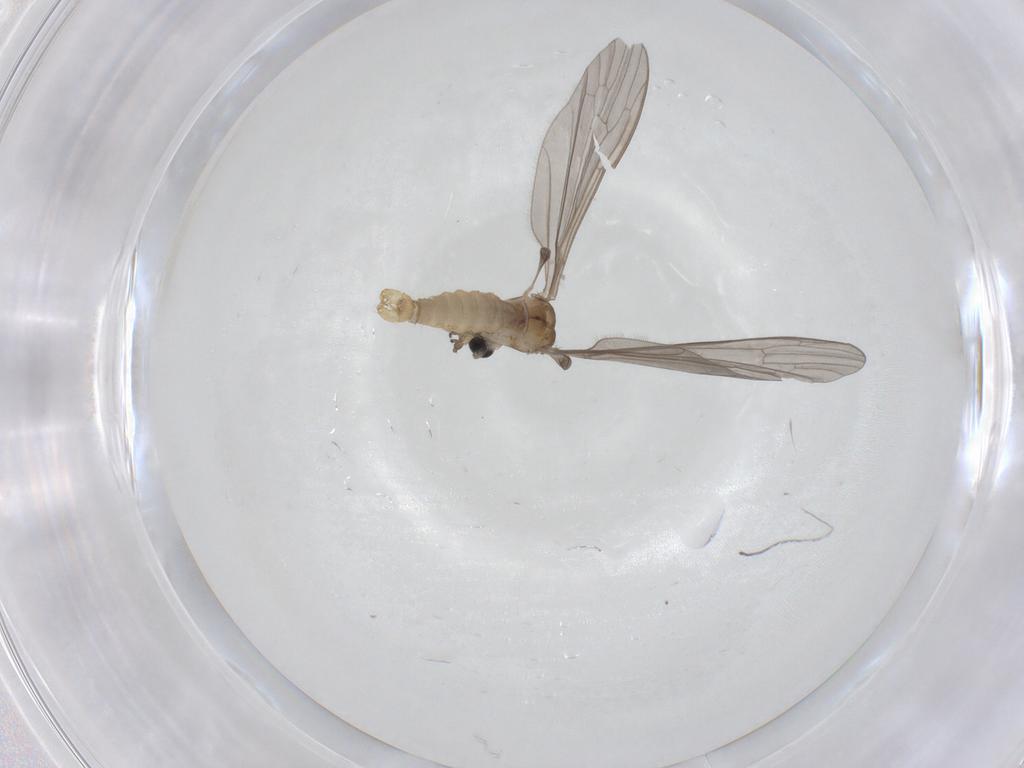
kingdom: Animalia
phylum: Arthropoda
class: Insecta
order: Diptera
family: Limoniidae
